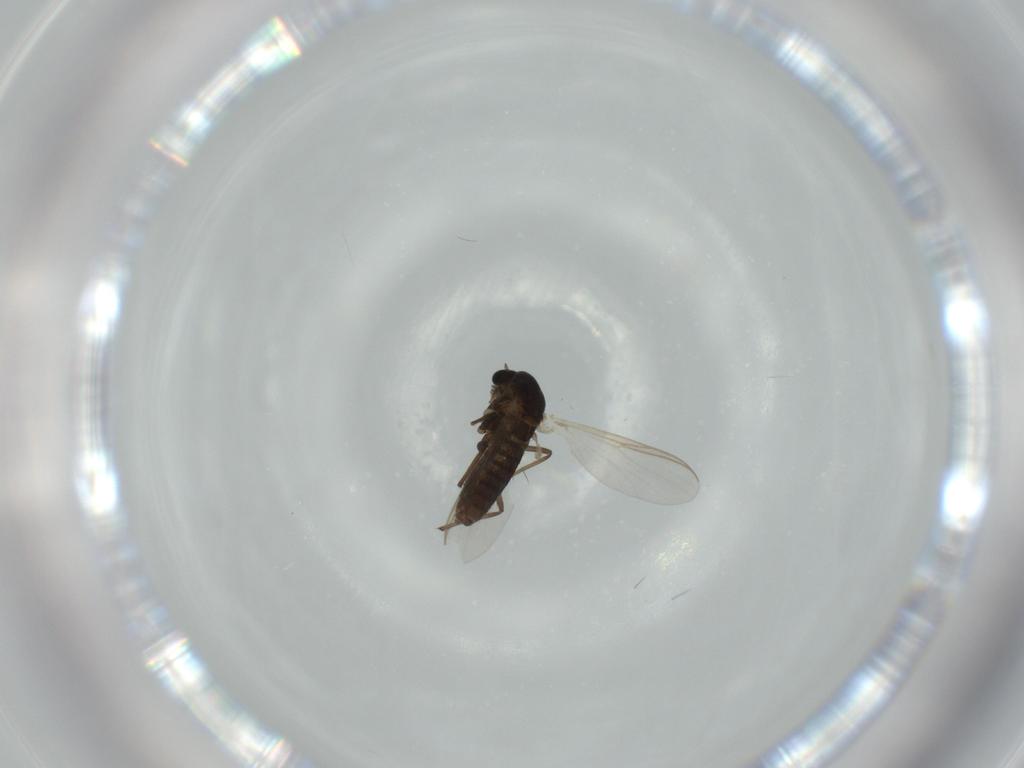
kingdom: Animalia
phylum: Arthropoda
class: Insecta
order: Diptera
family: Chironomidae
